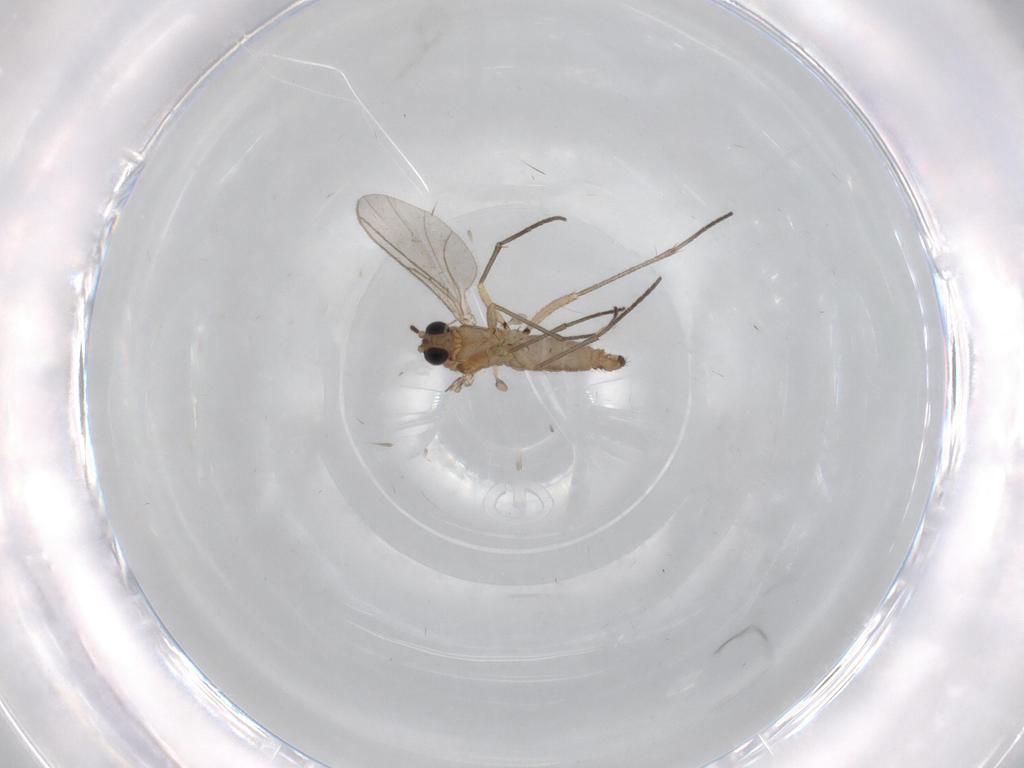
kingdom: Animalia
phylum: Arthropoda
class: Insecta
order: Diptera
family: Sciaridae
